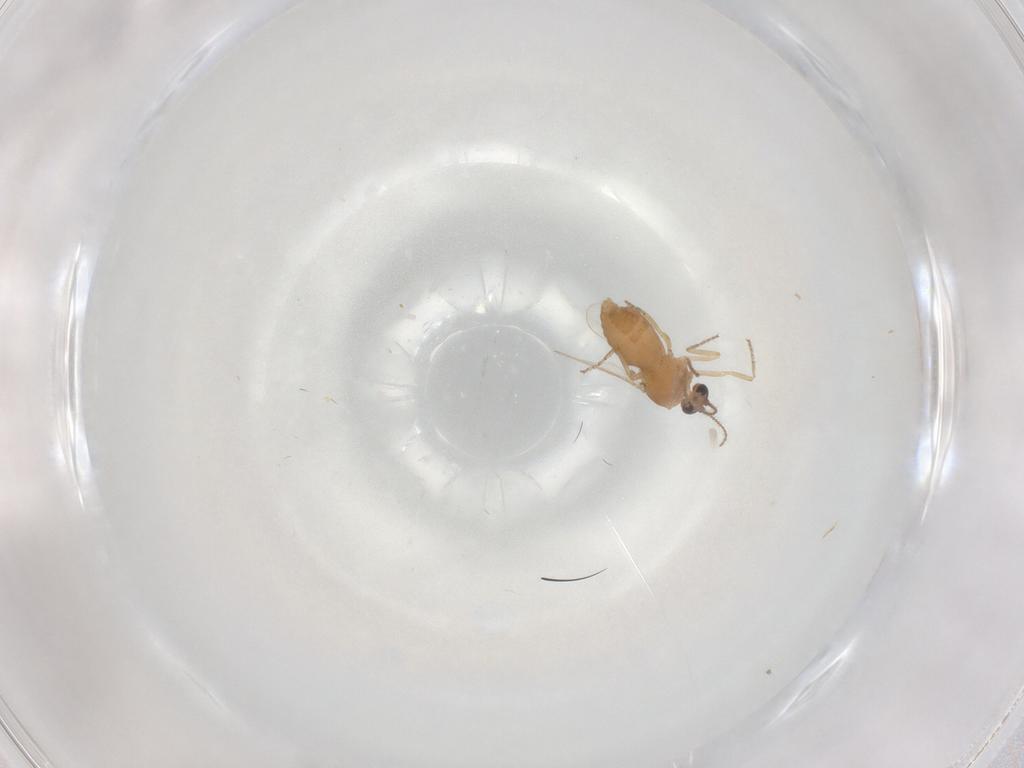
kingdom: Animalia
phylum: Arthropoda
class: Insecta
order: Diptera
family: Ceratopogonidae
